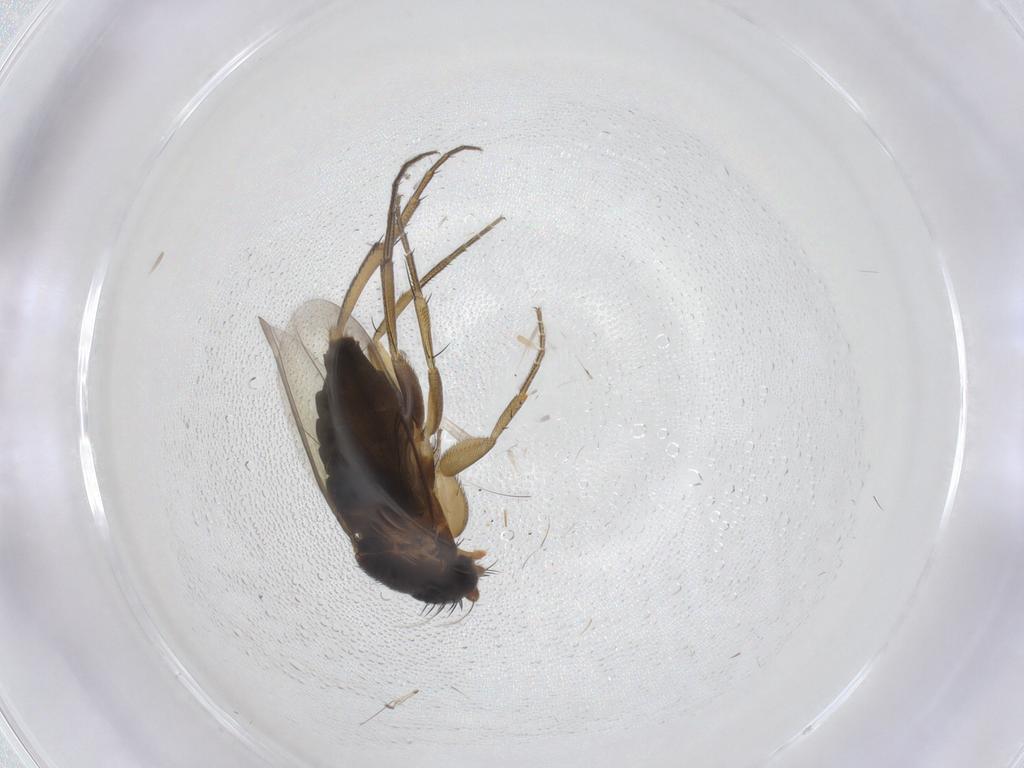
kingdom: Animalia
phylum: Arthropoda
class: Insecta
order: Diptera
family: Phoridae
